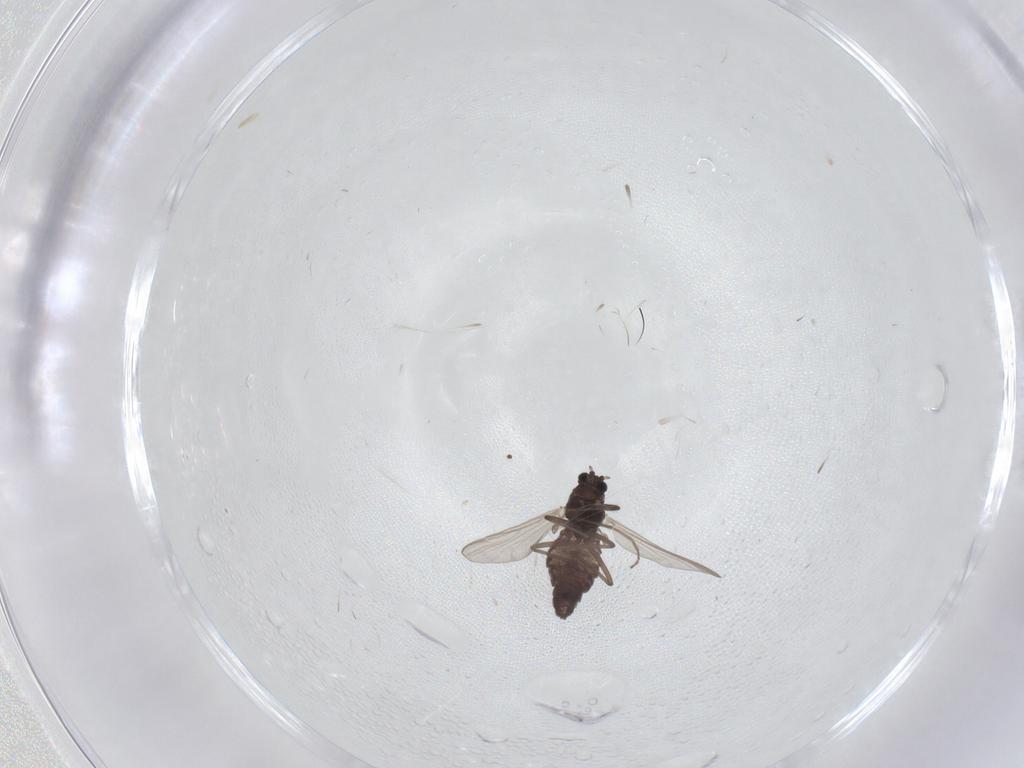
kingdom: Animalia
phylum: Arthropoda
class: Insecta
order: Diptera
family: Chironomidae
